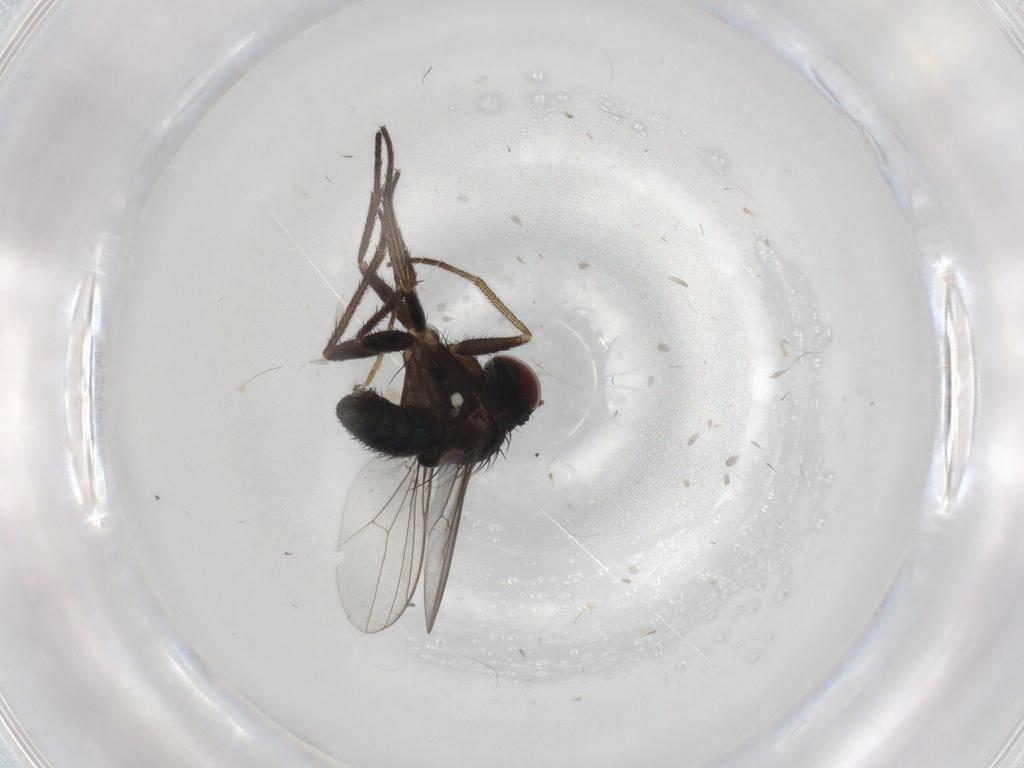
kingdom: Animalia
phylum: Arthropoda
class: Insecta
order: Diptera
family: Dolichopodidae
